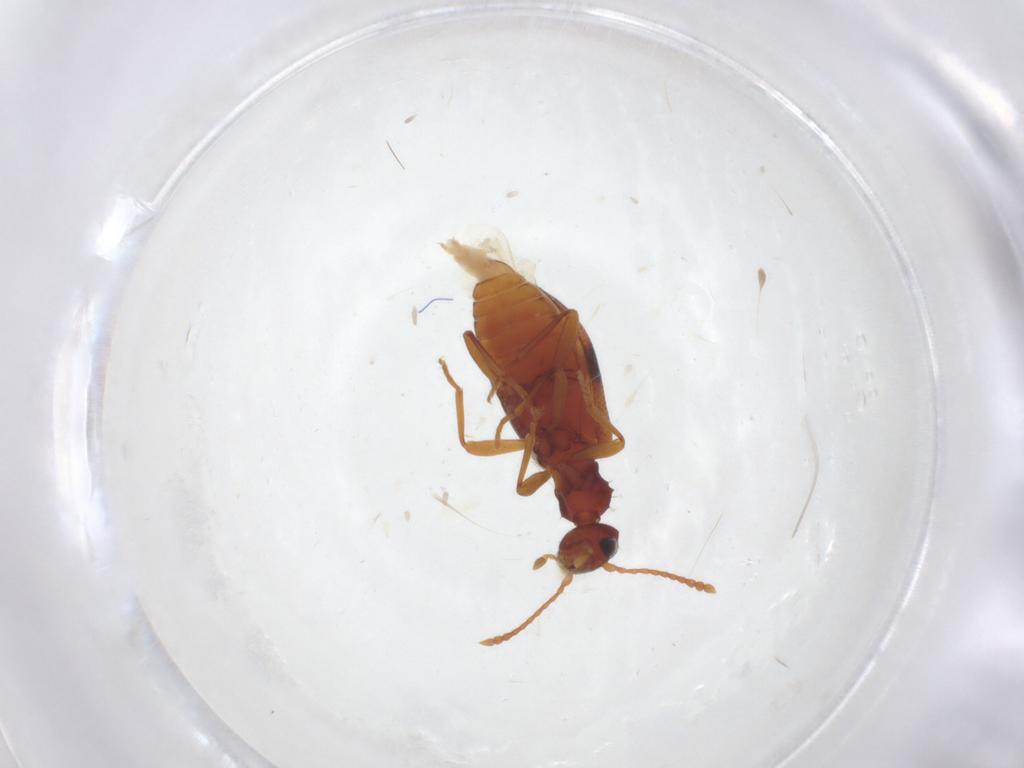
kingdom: Animalia
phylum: Arthropoda
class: Insecta
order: Coleoptera
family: Anthicidae
